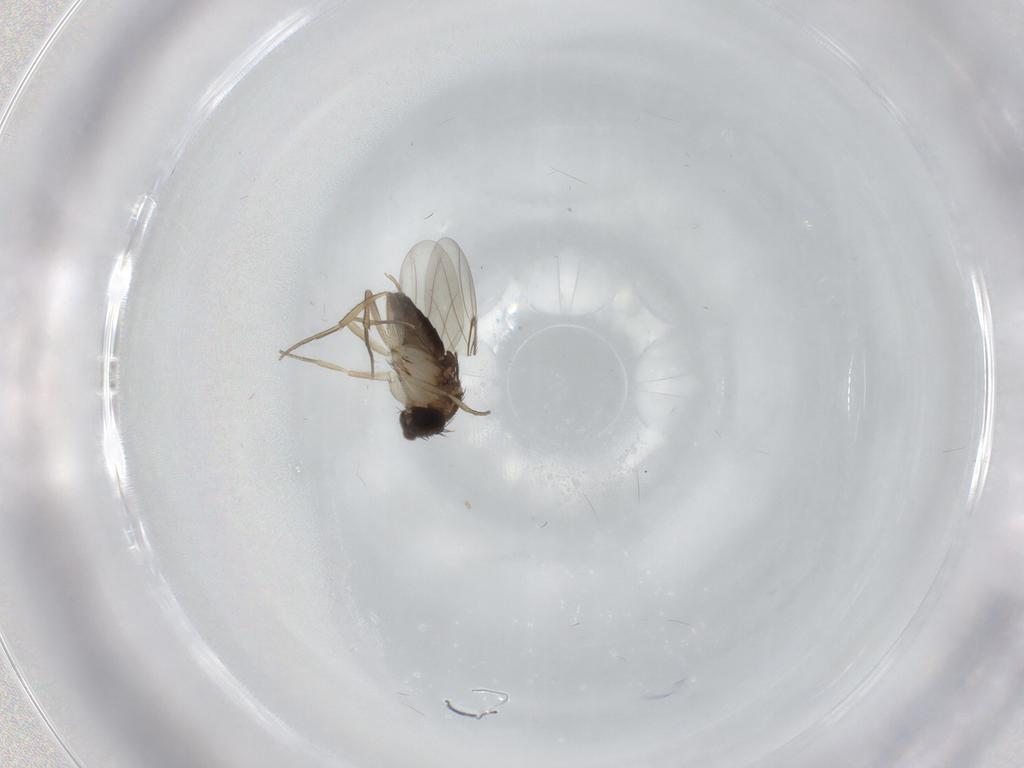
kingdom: Animalia
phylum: Arthropoda
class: Insecta
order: Diptera
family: Phoridae
